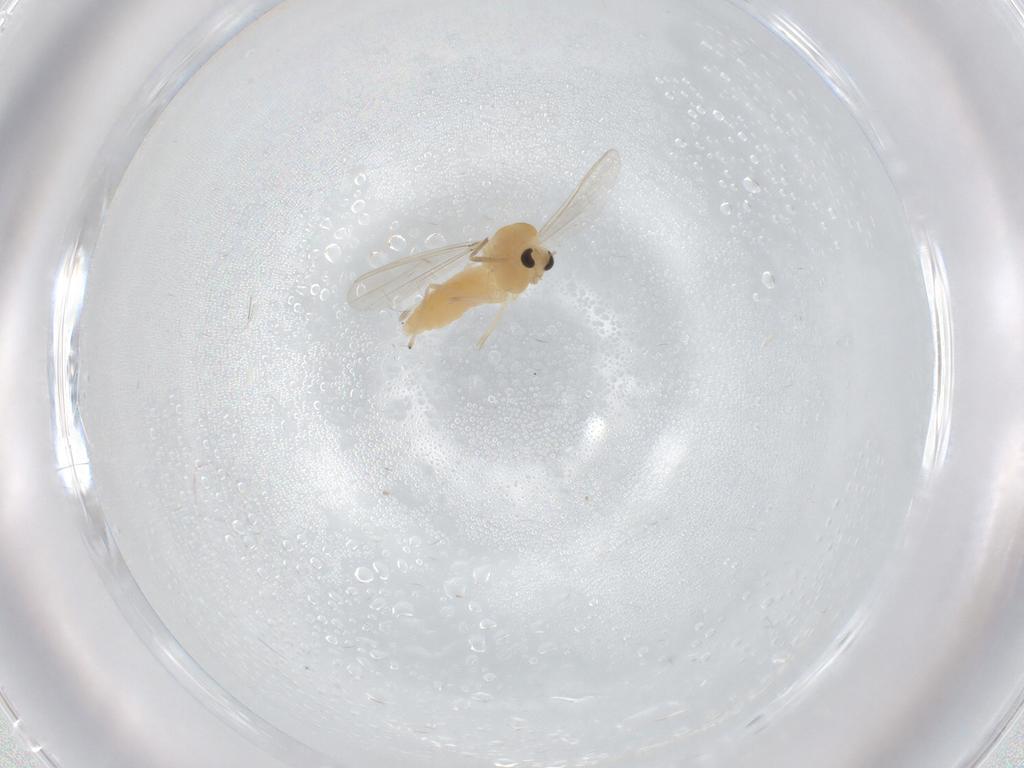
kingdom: Animalia
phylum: Arthropoda
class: Insecta
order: Diptera
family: Chironomidae
